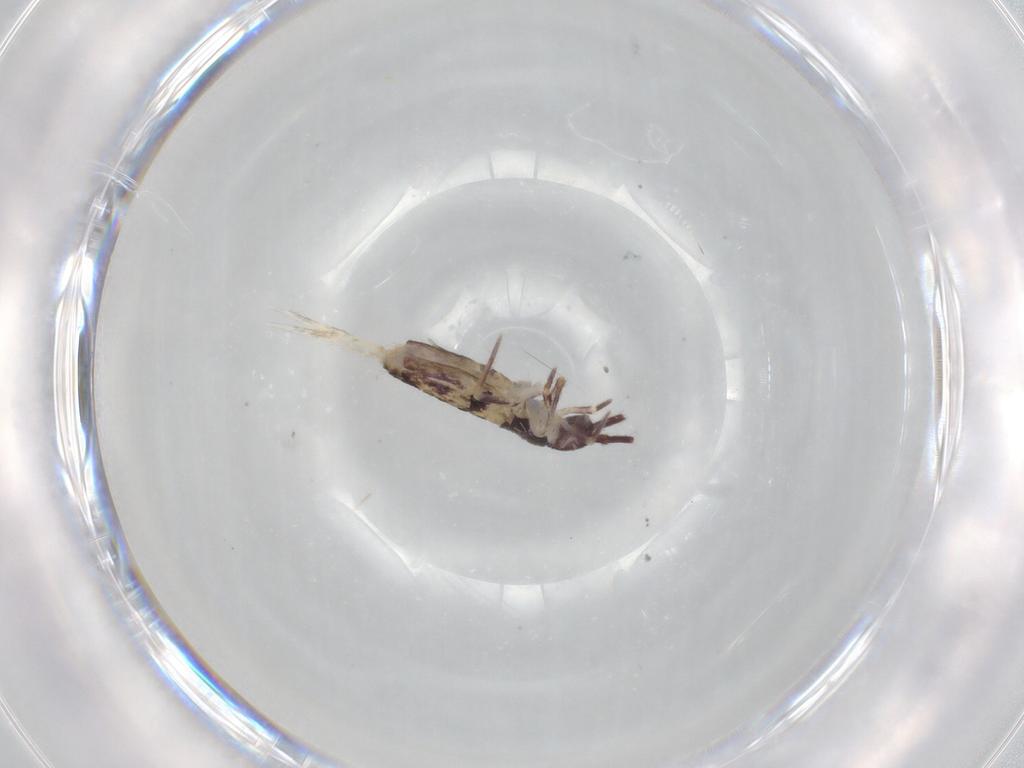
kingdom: Animalia
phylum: Arthropoda
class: Collembola
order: Entomobryomorpha
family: Entomobryidae
